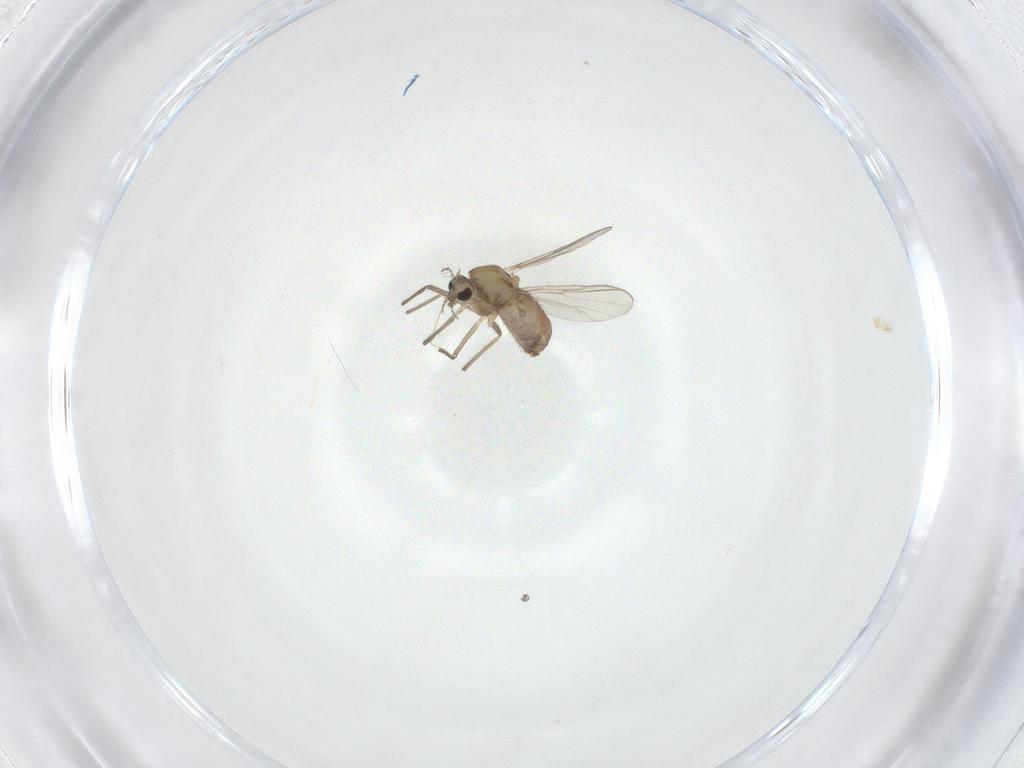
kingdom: Animalia
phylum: Arthropoda
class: Insecta
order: Diptera
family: Chironomidae
